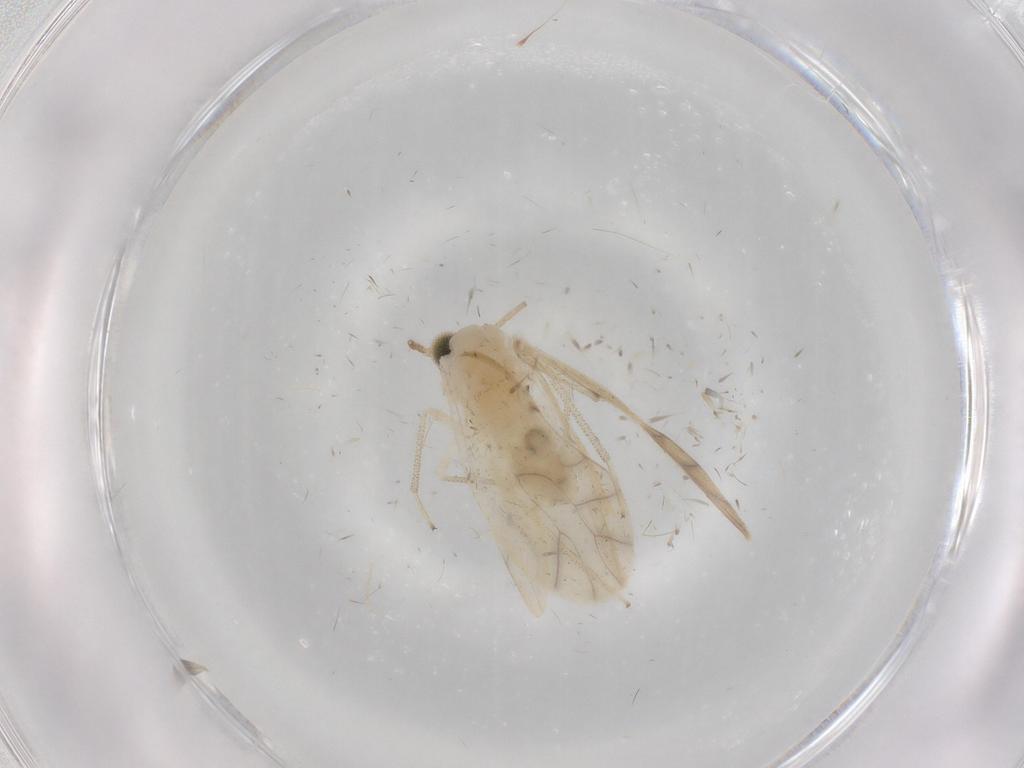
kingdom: Animalia
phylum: Arthropoda
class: Insecta
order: Psocodea
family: Caeciliusidae
